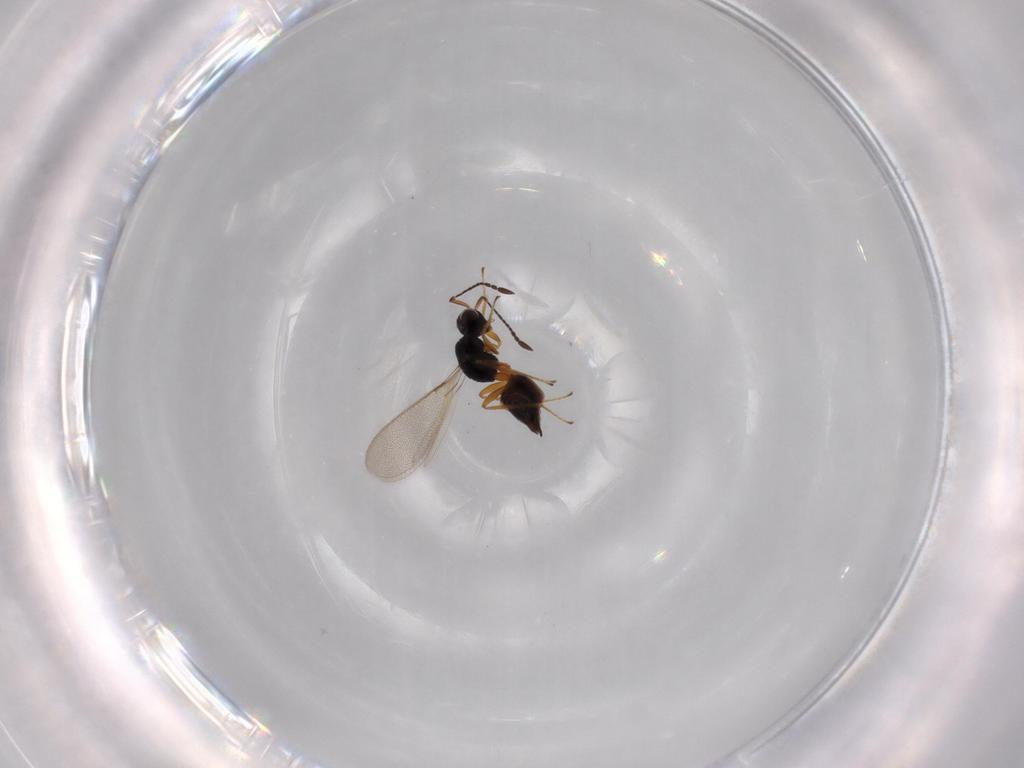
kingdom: Animalia
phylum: Arthropoda
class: Insecta
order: Hymenoptera
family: Mymaridae
